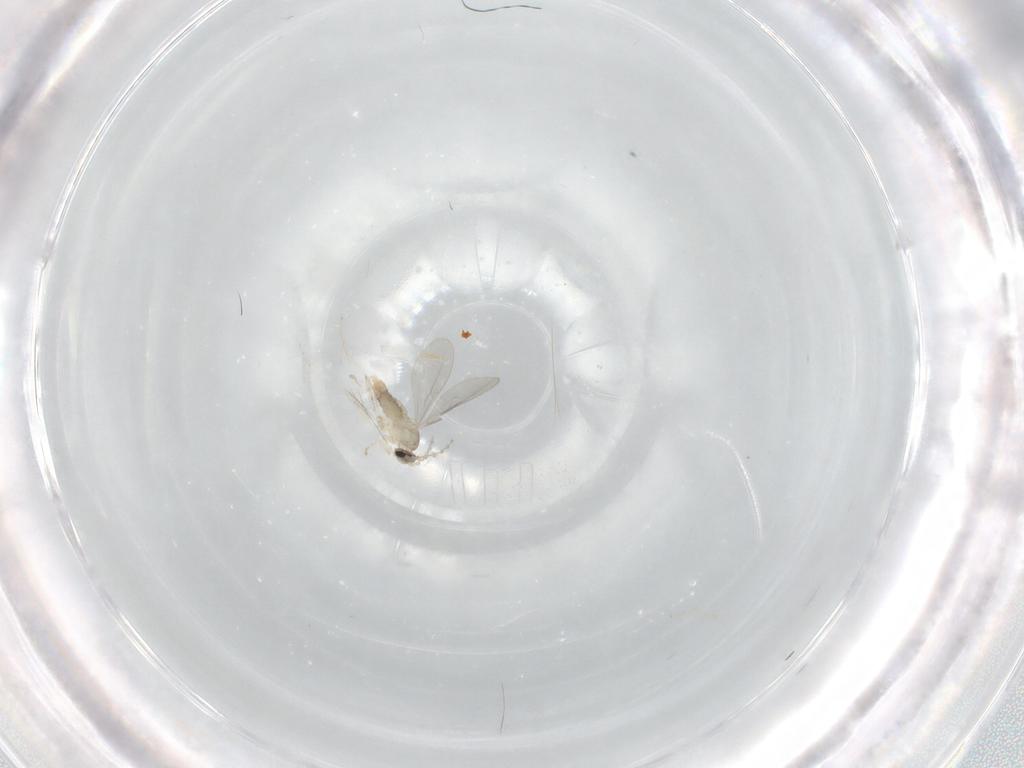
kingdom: Animalia
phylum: Arthropoda
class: Insecta
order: Diptera
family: Cecidomyiidae
